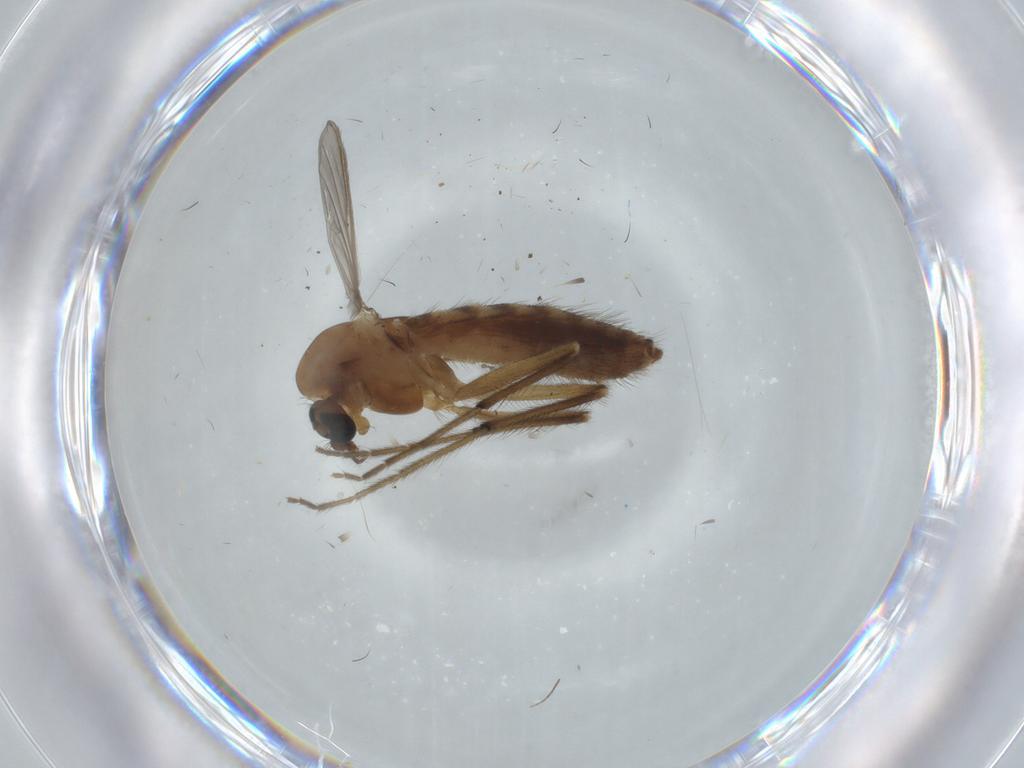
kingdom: Animalia
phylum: Arthropoda
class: Insecta
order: Diptera
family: Chironomidae
